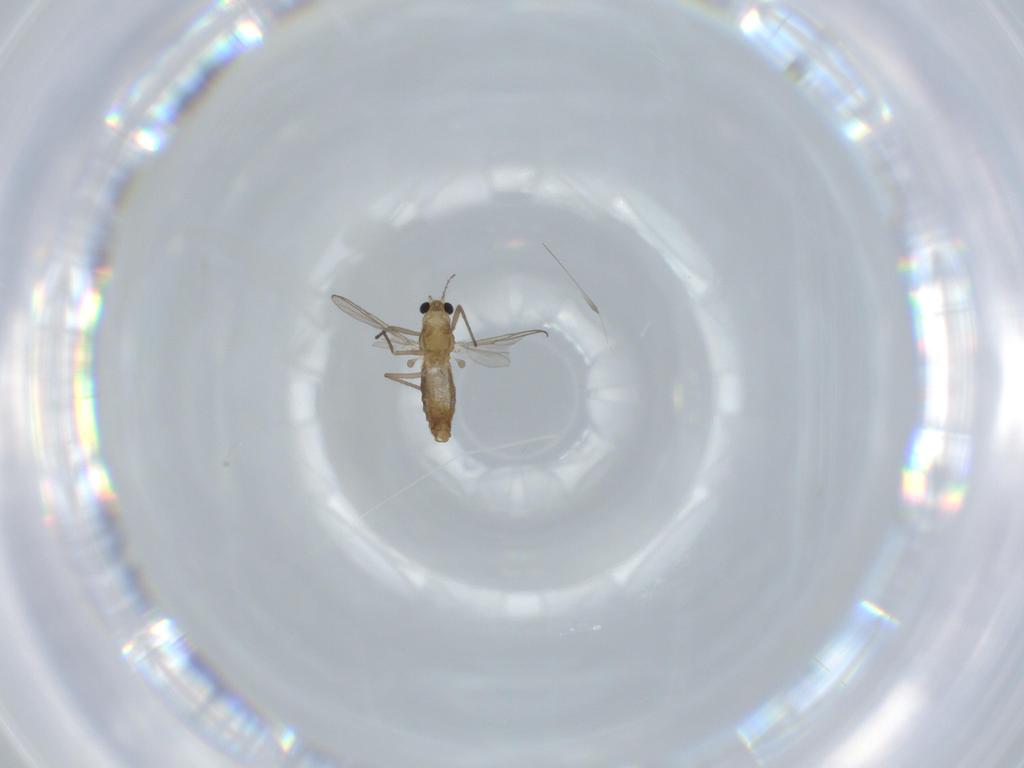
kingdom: Animalia
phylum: Arthropoda
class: Insecta
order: Diptera
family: Chironomidae
